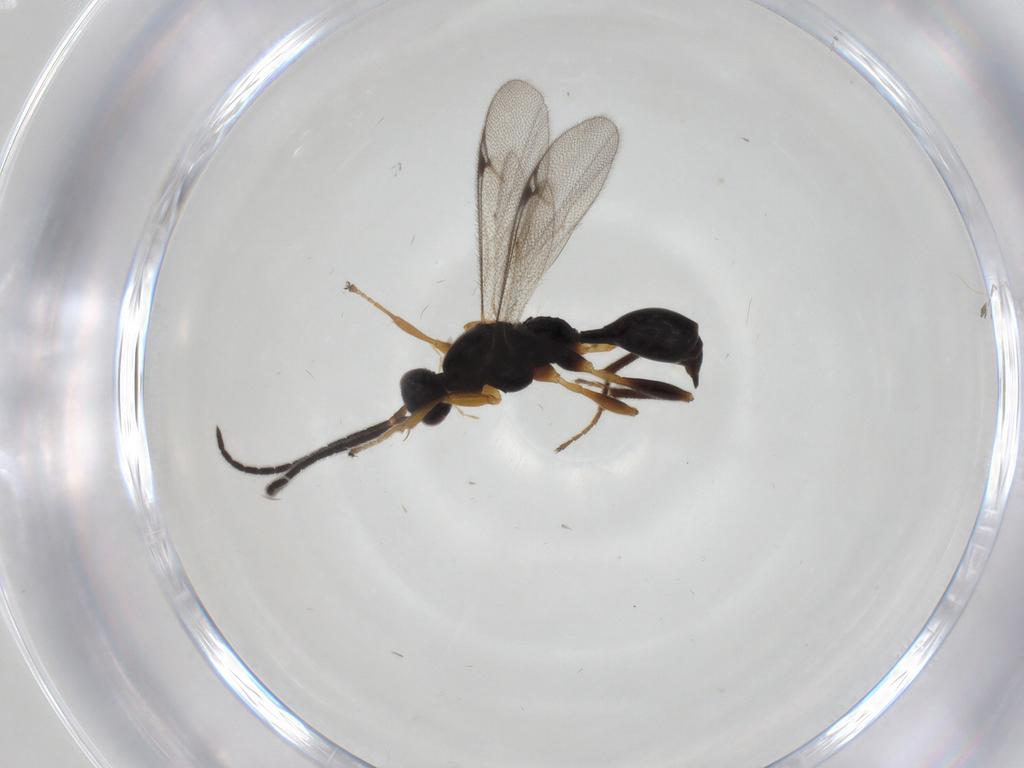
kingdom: Animalia
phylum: Arthropoda
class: Insecta
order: Hymenoptera
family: Proctotrupidae
